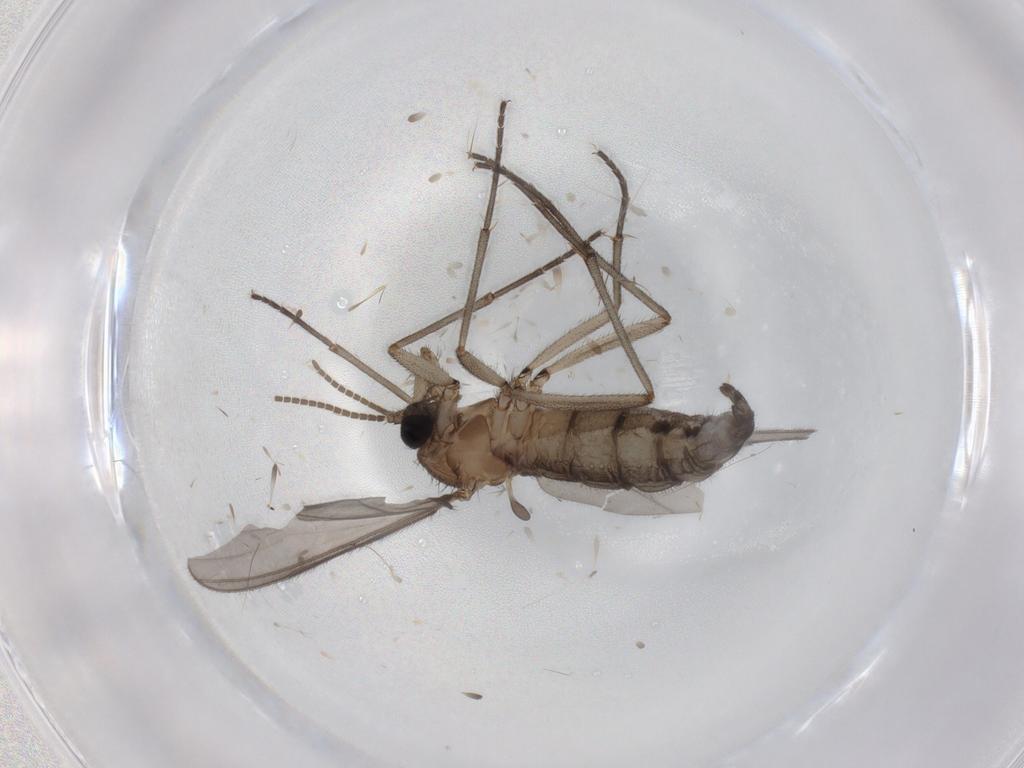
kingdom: Animalia
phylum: Arthropoda
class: Insecta
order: Diptera
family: Cecidomyiidae
